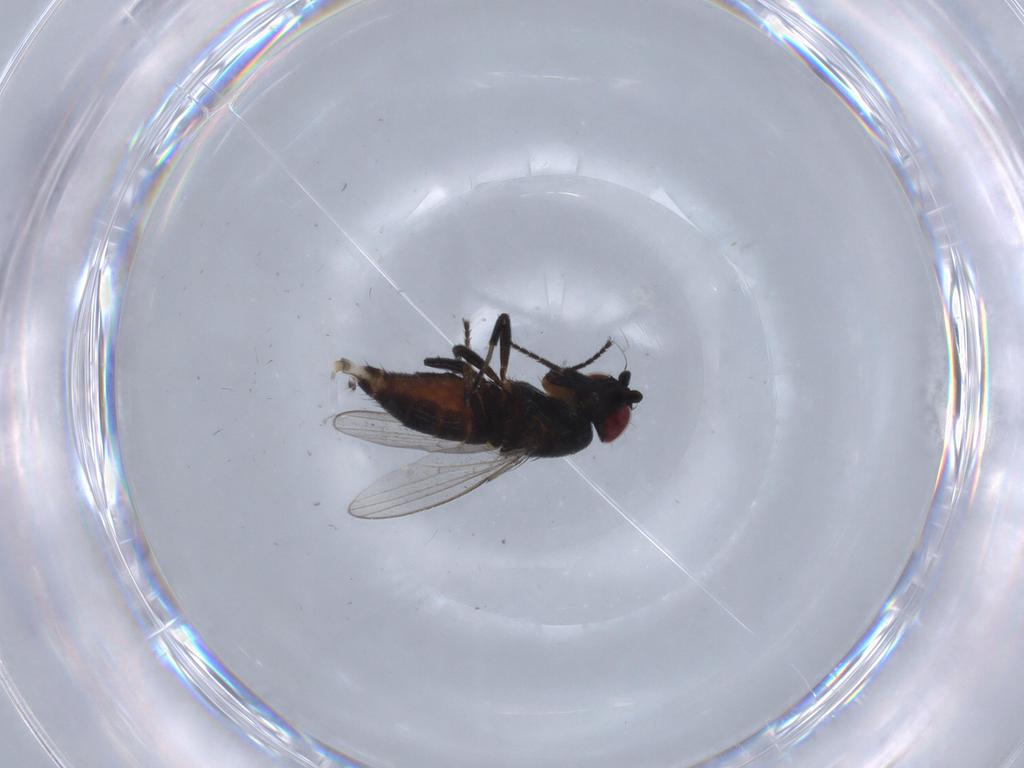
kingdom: Animalia
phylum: Arthropoda
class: Insecta
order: Diptera
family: Milichiidae
